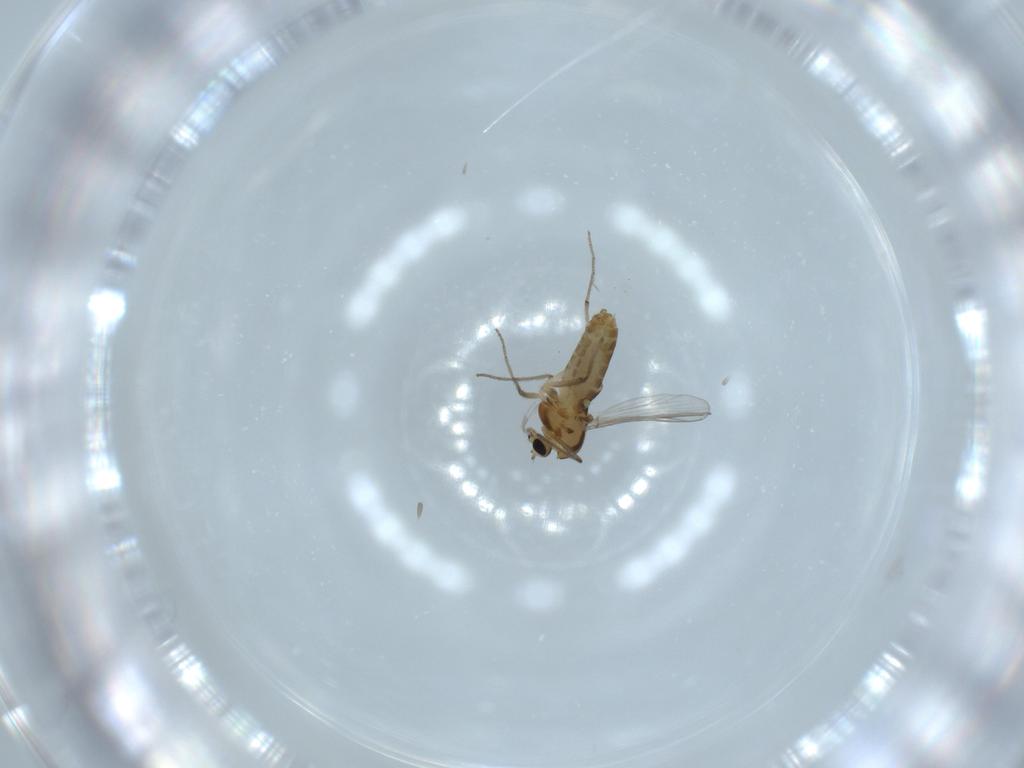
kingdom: Animalia
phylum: Arthropoda
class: Insecta
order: Diptera
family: Chironomidae
